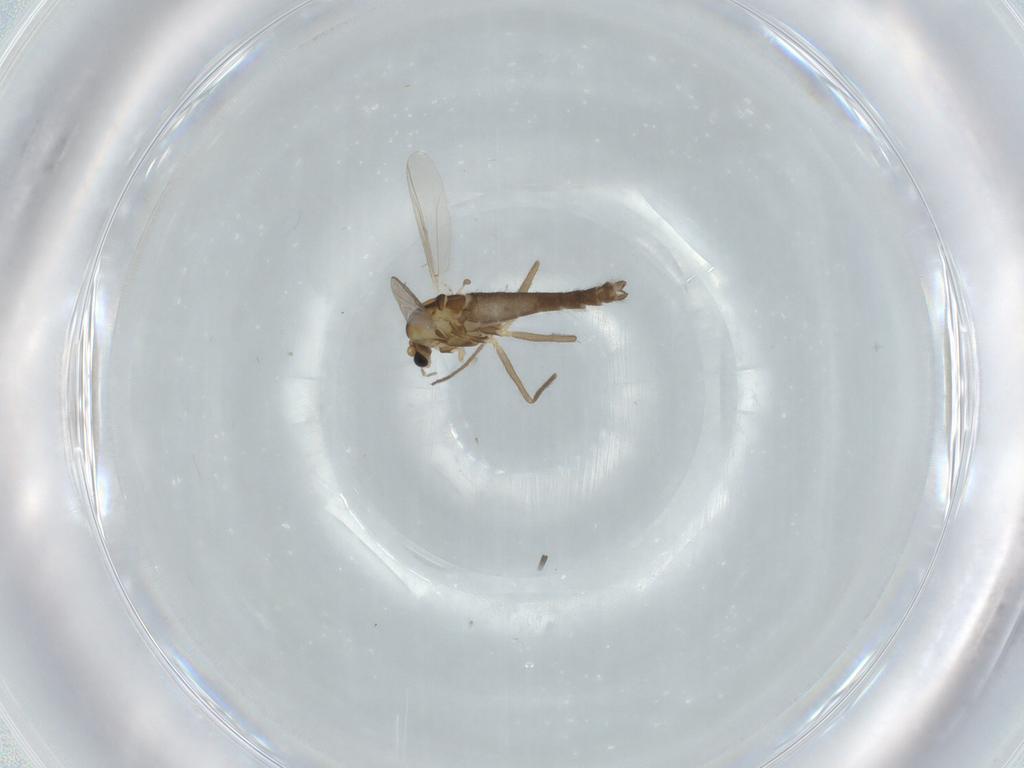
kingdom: Animalia
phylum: Arthropoda
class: Insecta
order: Diptera
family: Chironomidae
